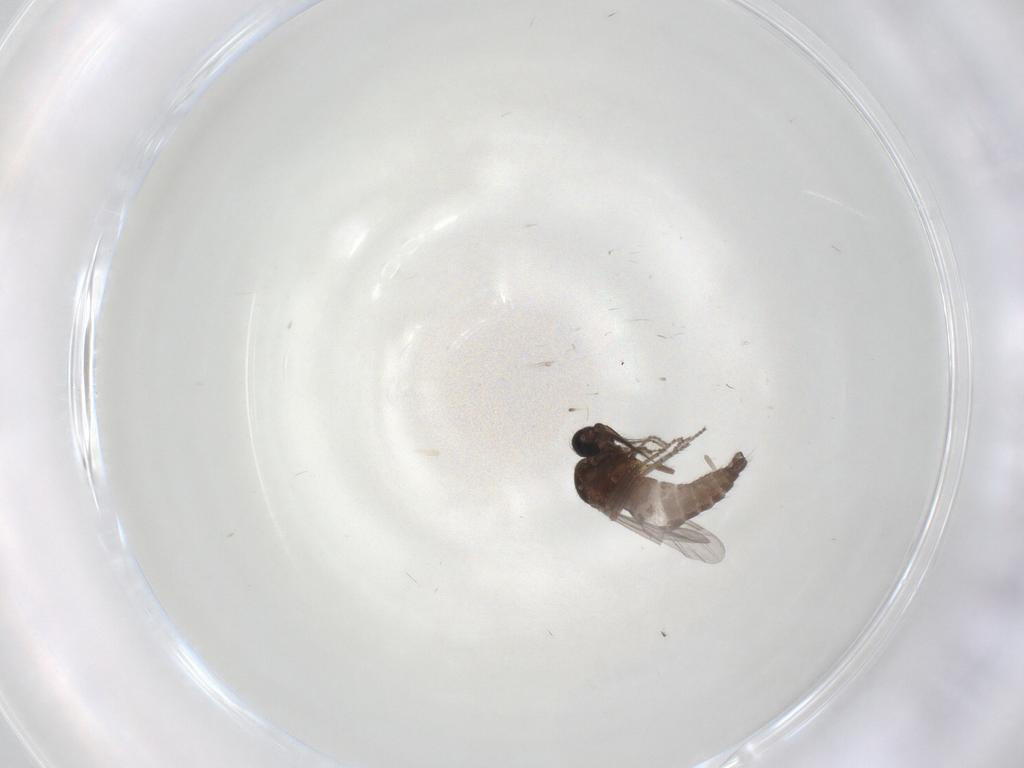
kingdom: Animalia
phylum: Arthropoda
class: Insecta
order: Diptera
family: Ceratopogonidae
